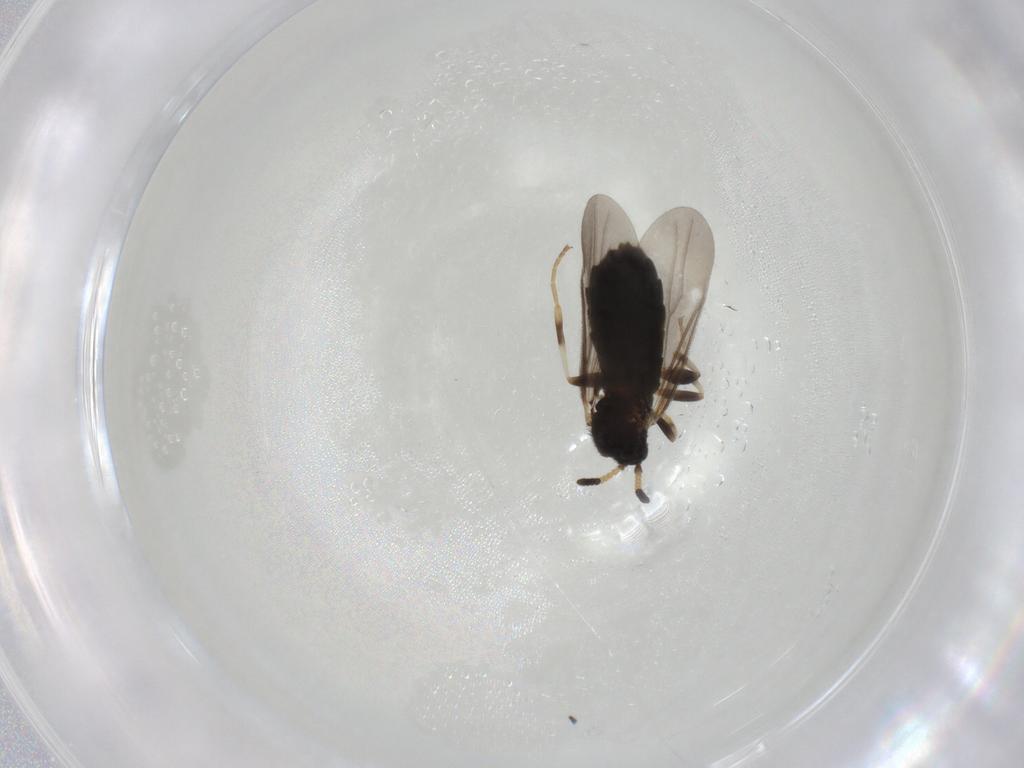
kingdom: Animalia
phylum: Arthropoda
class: Insecta
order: Diptera
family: Scatopsidae
